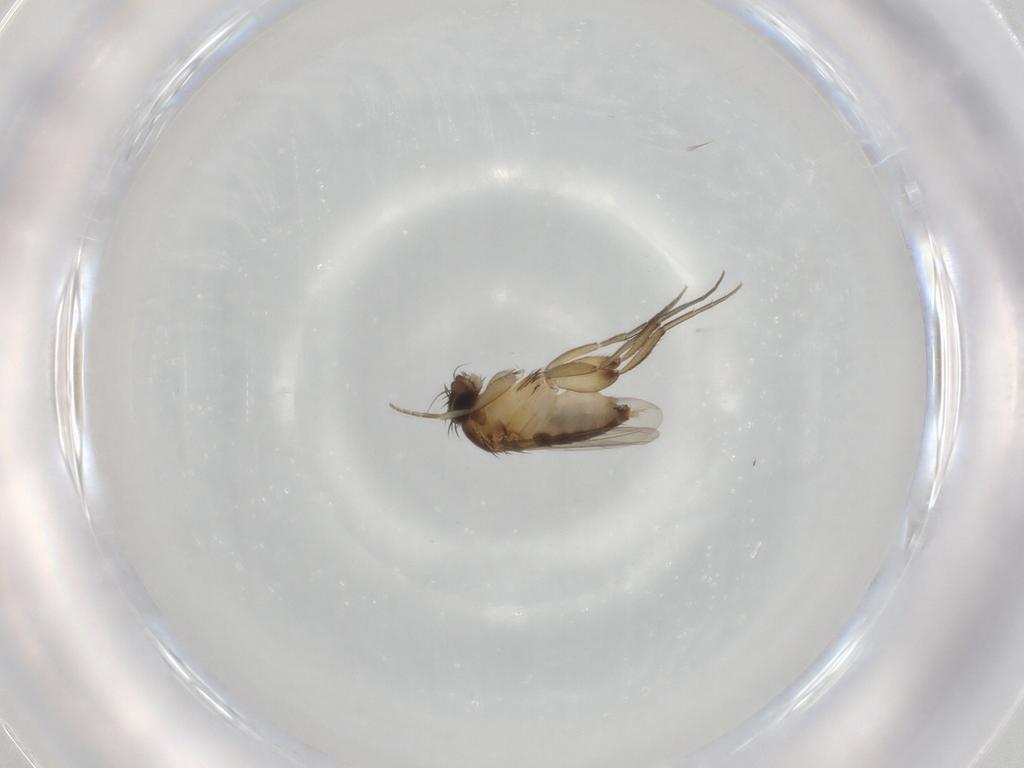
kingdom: Animalia
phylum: Arthropoda
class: Insecta
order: Diptera
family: Phoridae
